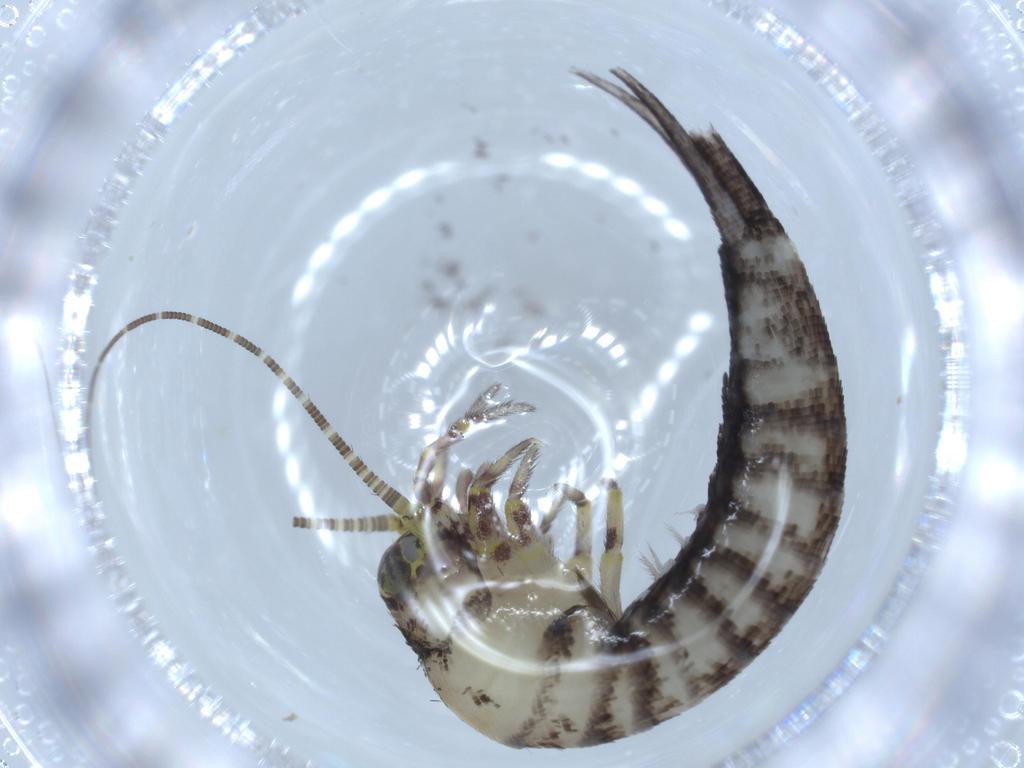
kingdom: Animalia
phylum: Arthropoda
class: Insecta
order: Archaeognatha
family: Machilidae
